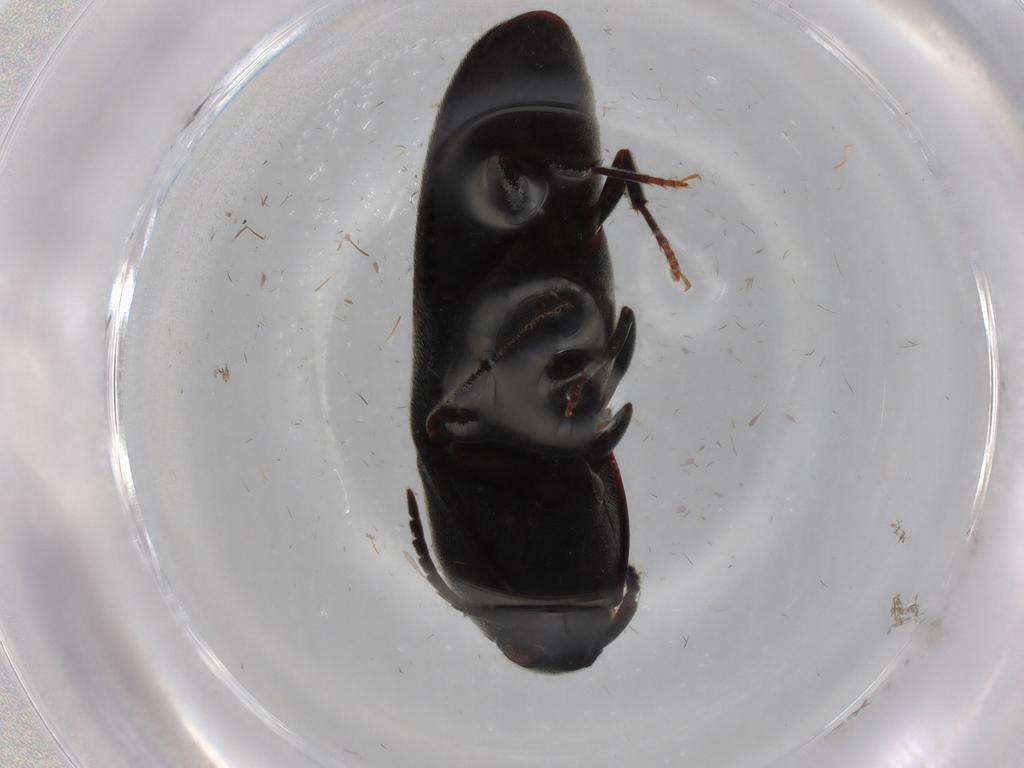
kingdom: Animalia
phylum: Arthropoda
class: Insecta
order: Coleoptera
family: Eucnemidae
